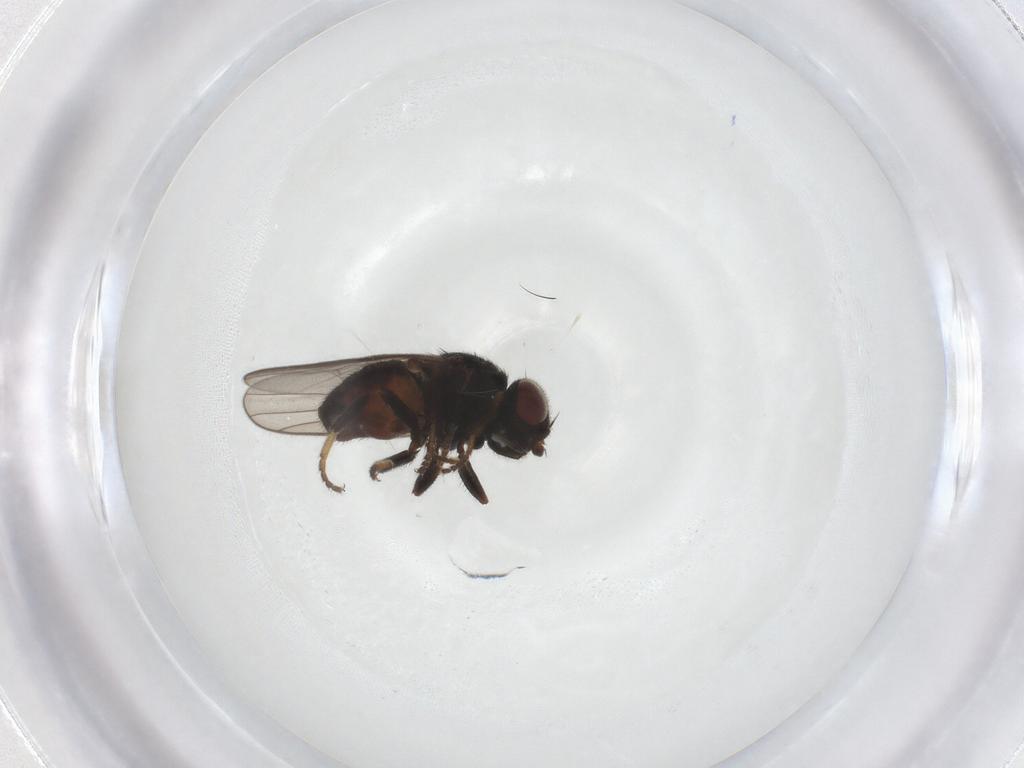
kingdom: Animalia
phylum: Arthropoda
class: Insecta
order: Diptera
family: Chloropidae
